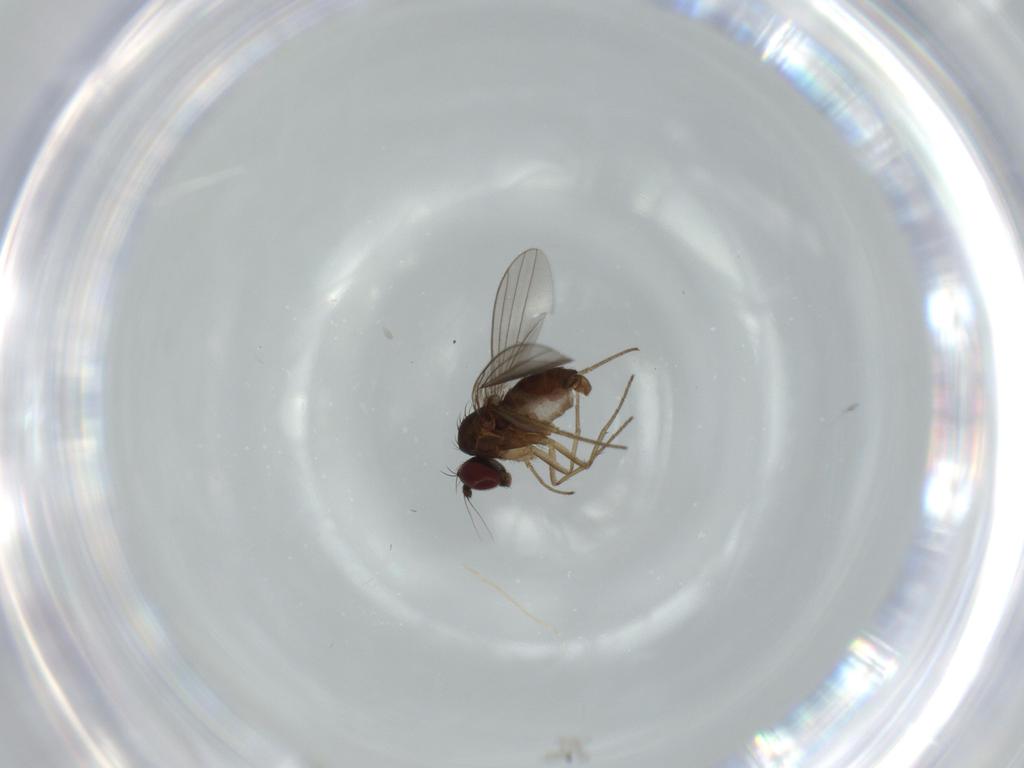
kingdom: Animalia
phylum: Arthropoda
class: Insecta
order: Diptera
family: Dolichopodidae
